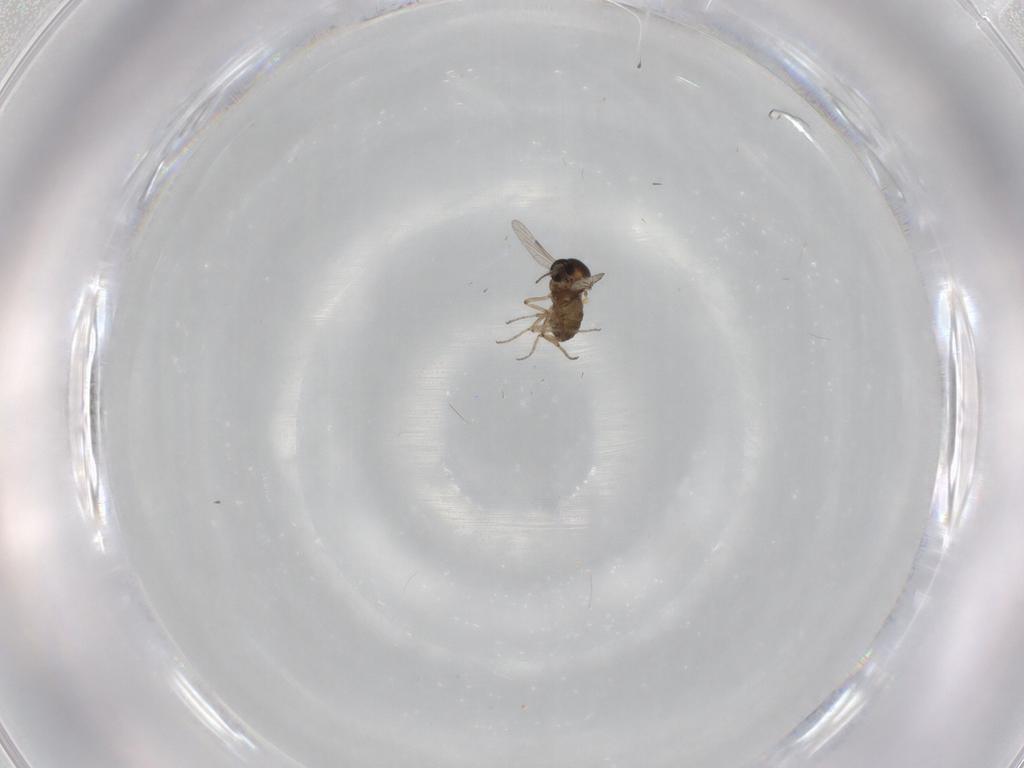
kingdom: Animalia
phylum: Arthropoda
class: Insecta
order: Diptera
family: Ceratopogonidae
